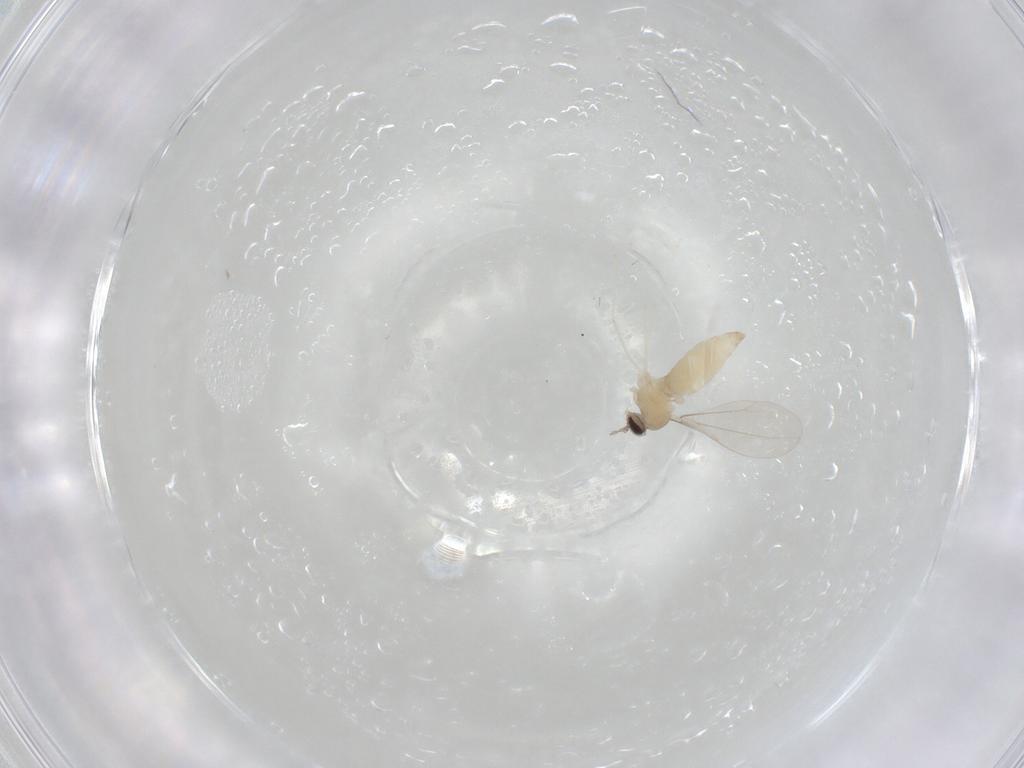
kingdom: Animalia
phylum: Arthropoda
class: Insecta
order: Diptera
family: Cecidomyiidae
